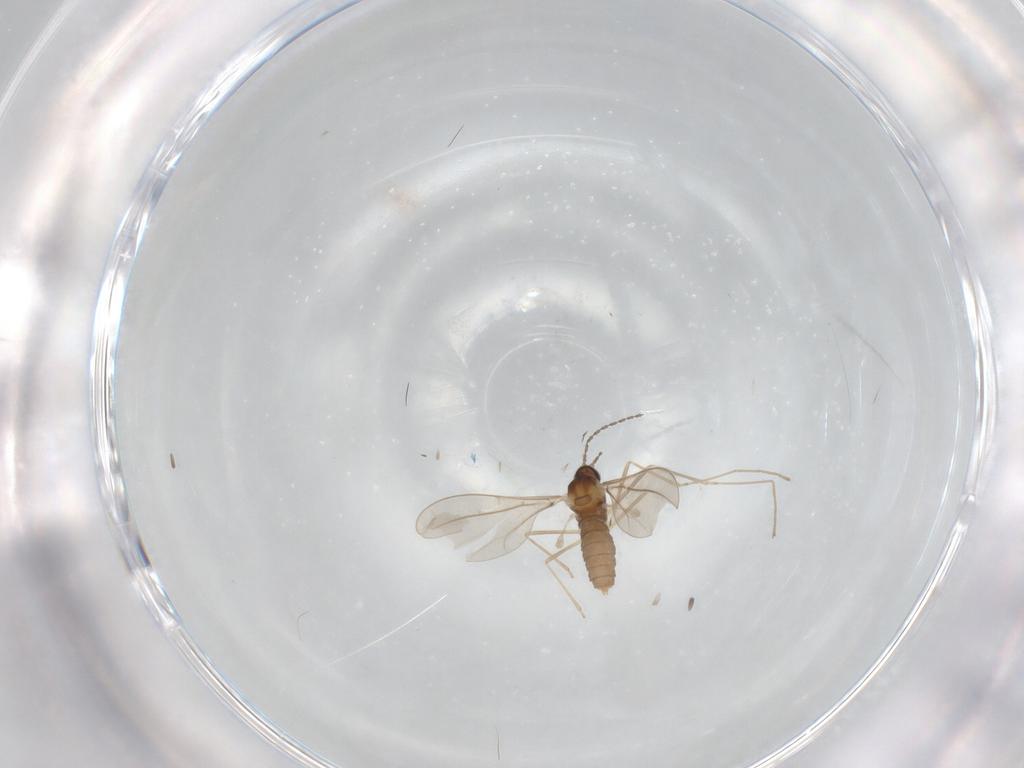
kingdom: Animalia
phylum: Arthropoda
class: Insecta
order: Diptera
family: Cecidomyiidae
